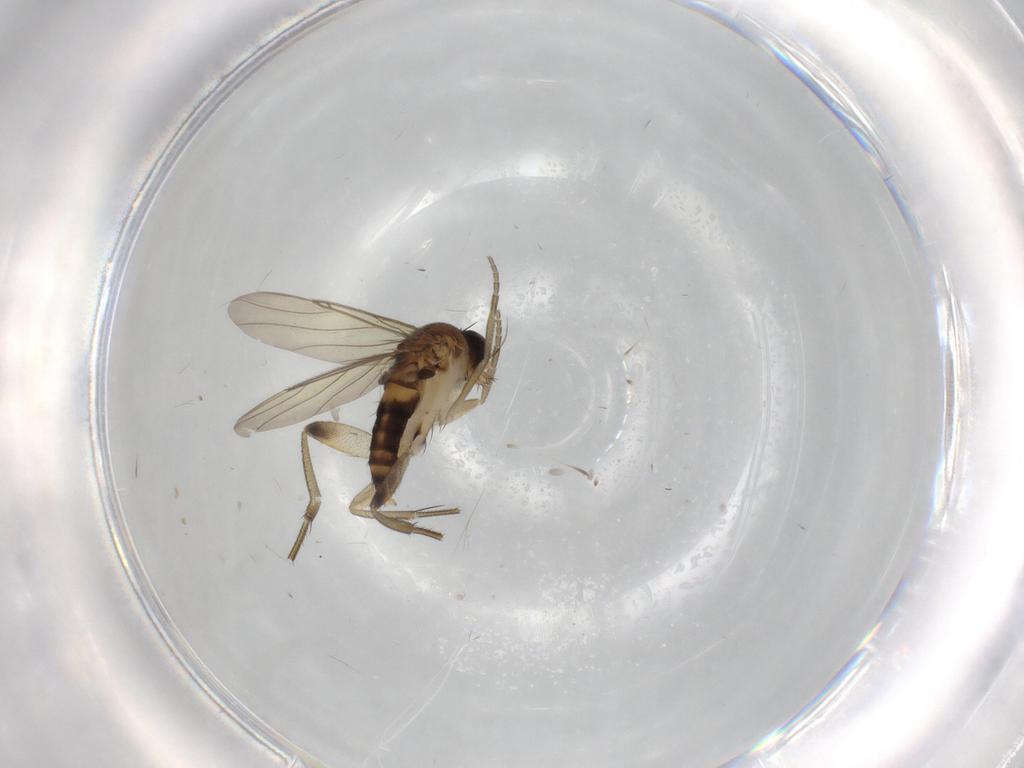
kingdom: Animalia
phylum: Arthropoda
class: Insecta
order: Diptera
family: Phoridae
